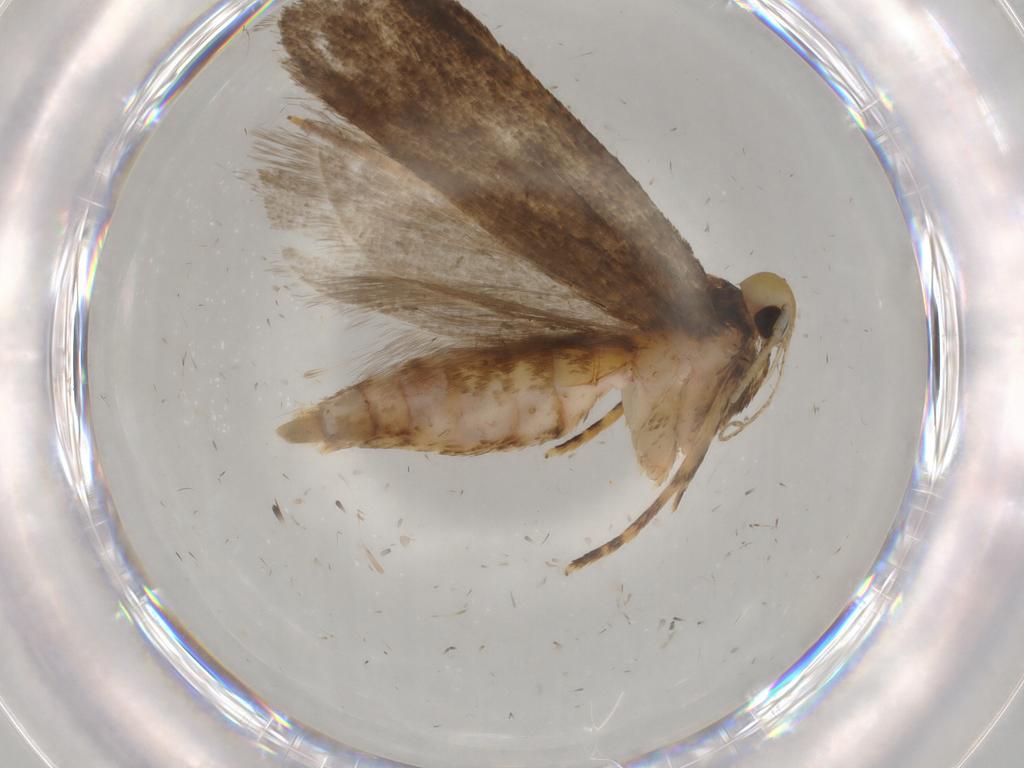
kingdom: Animalia
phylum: Arthropoda
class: Insecta
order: Lepidoptera
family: Autostichidae
